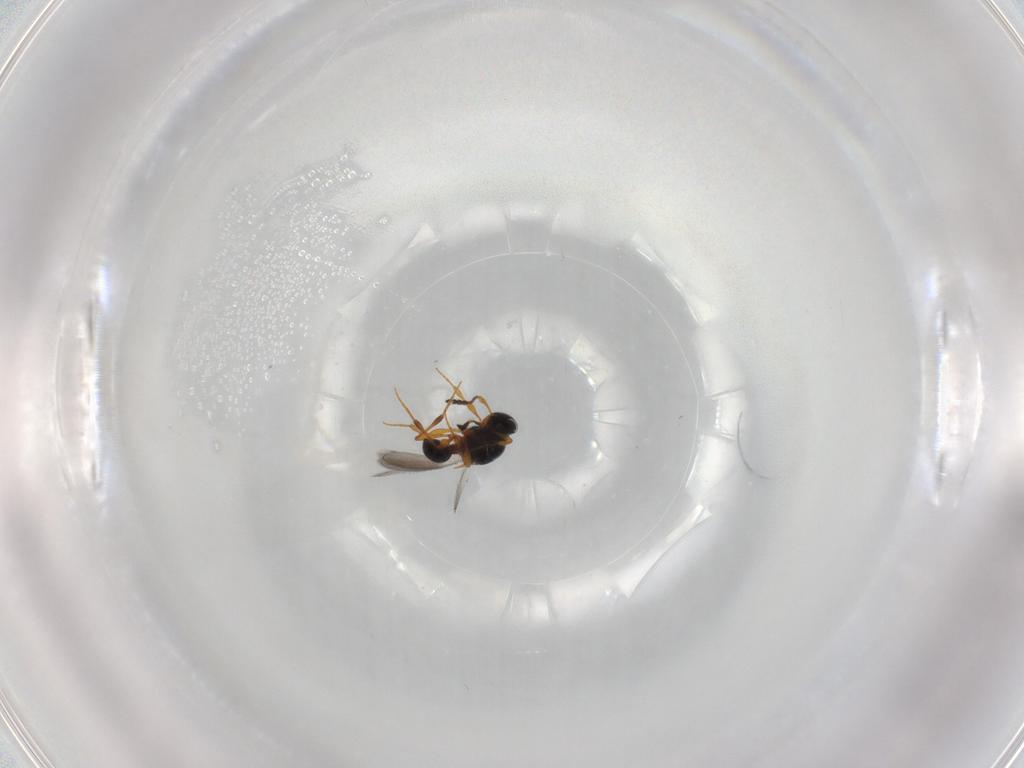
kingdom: Animalia
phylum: Arthropoda
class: Insecta
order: Hymenoptera
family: Platygastridae
